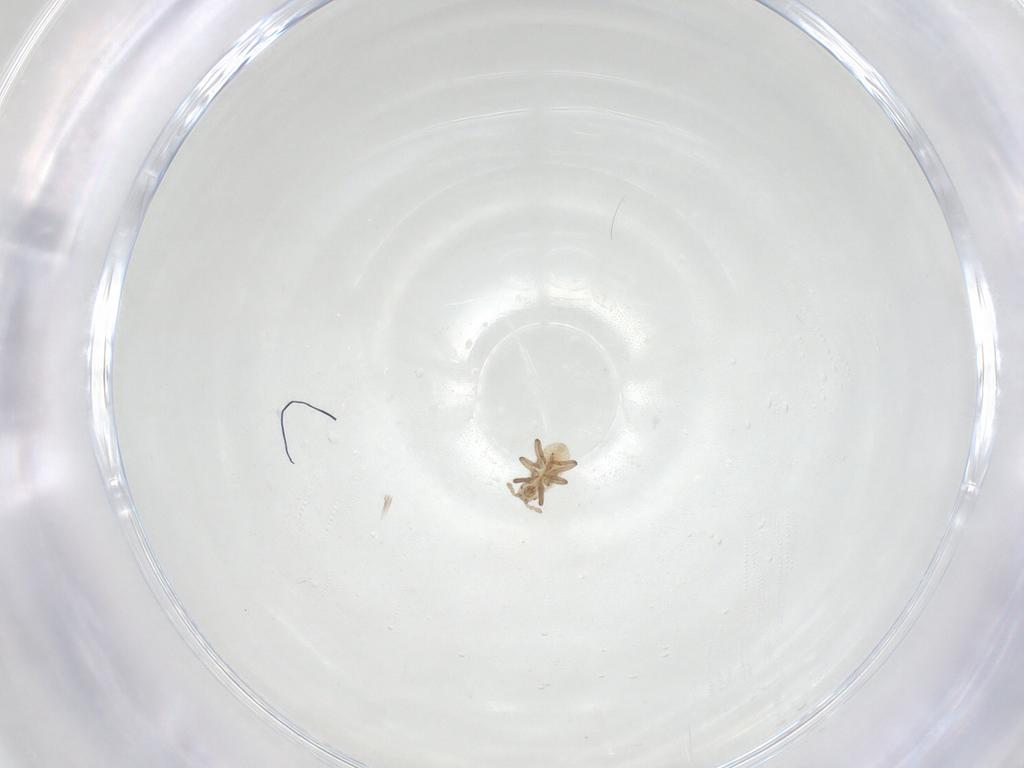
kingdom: Animalia
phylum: Arthropoda
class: Insecta
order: Hemiptera
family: Aphididae
